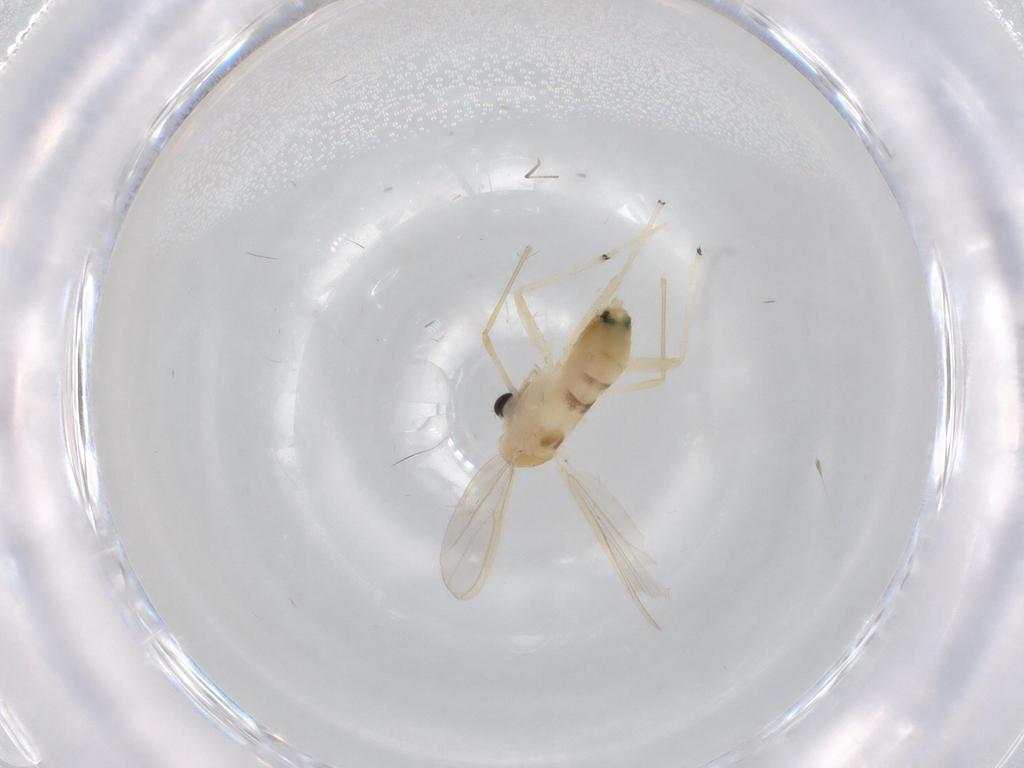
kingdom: Animalia
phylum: Arthropoda
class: Insecta
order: Diptera
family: Chironomidae
